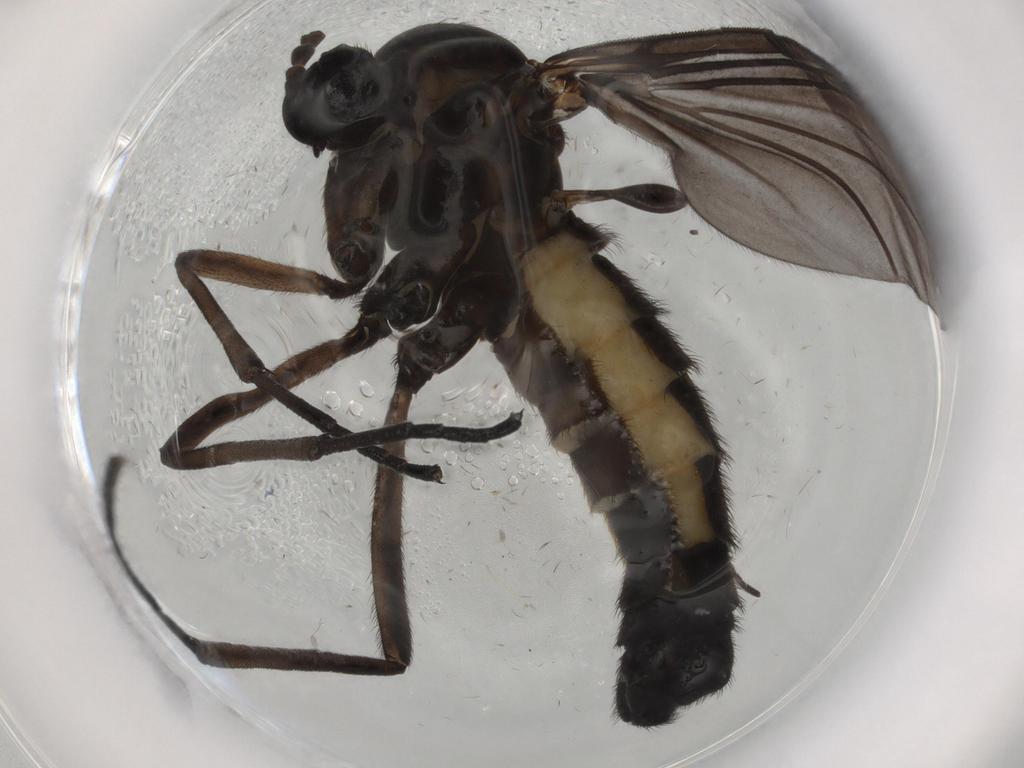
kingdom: Animalia
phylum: Arthropoda
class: Insecta
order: Diptera
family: Sciaridae
